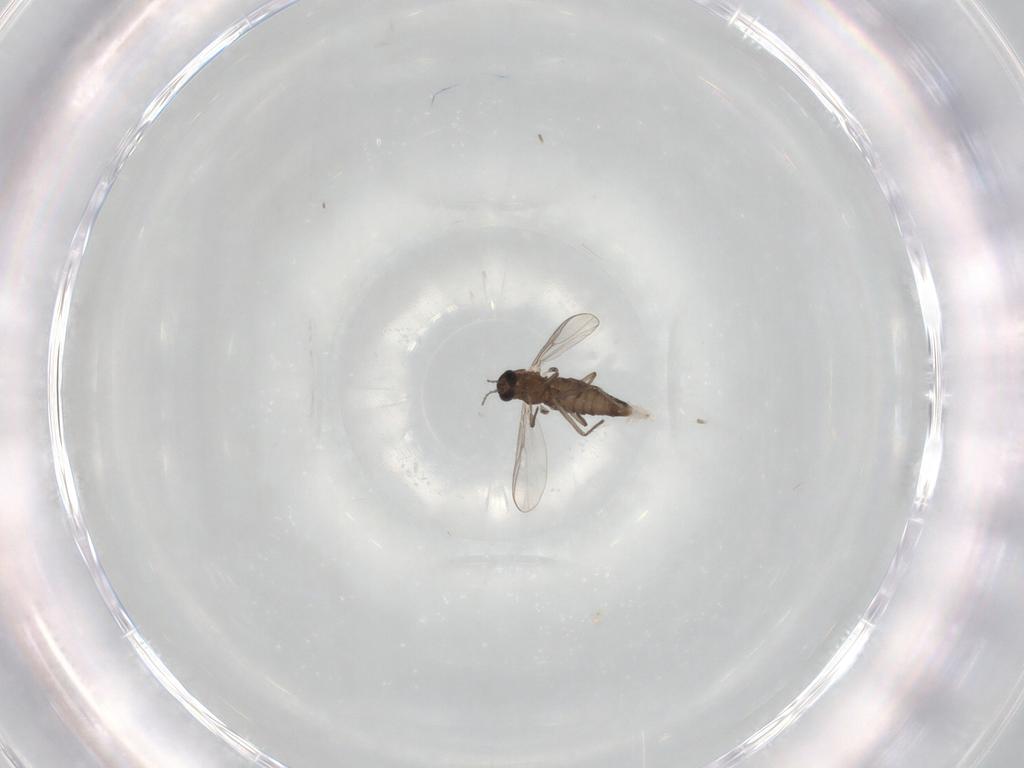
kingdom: Animalia
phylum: Arthropoda
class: Insecta
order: Diptera
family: Chironomidae
